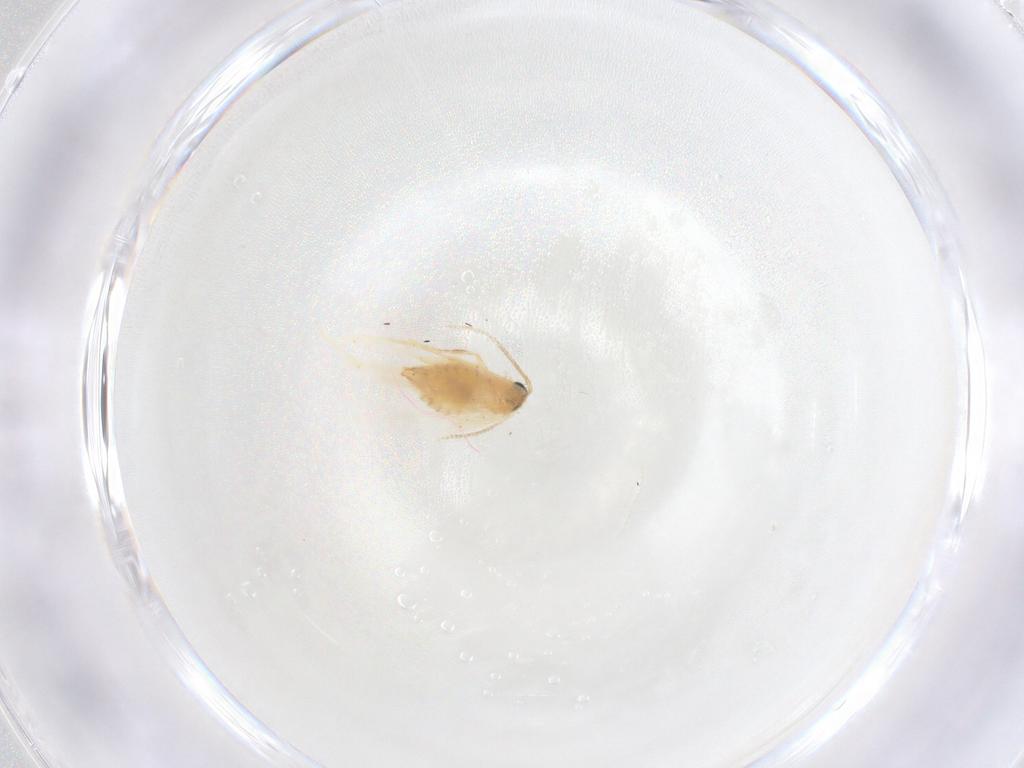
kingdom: Animalia
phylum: Arthropoda
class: Insecta
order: Lepidoptera
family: Nepticulidae
